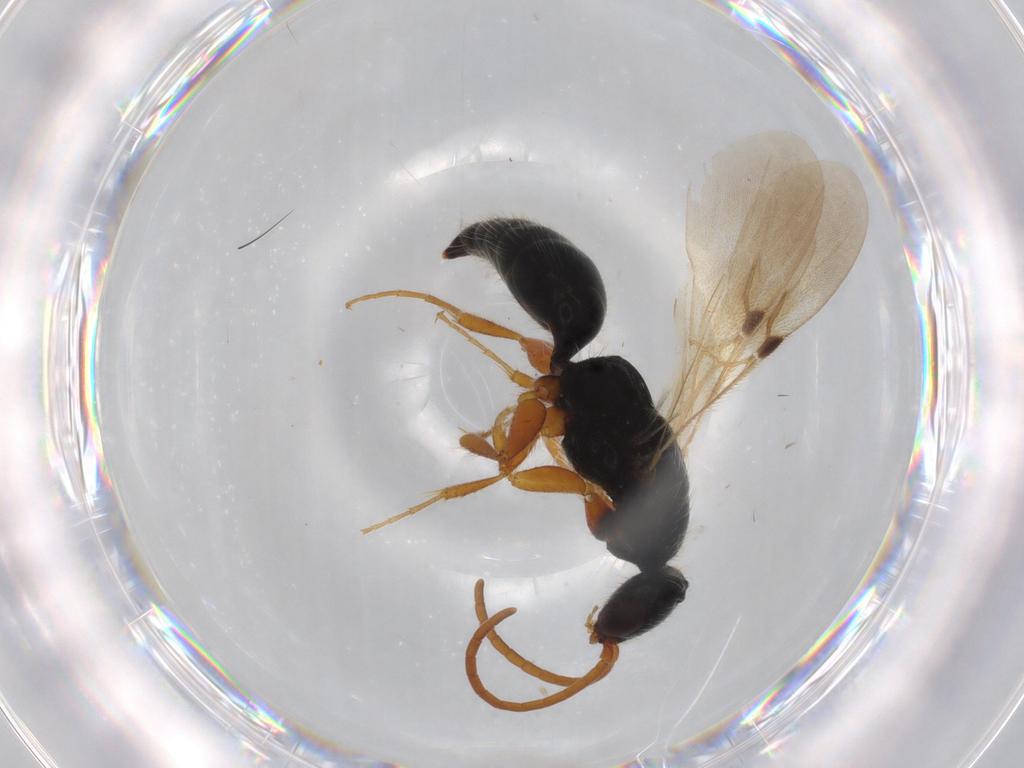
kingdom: Animalia
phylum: Arthropoda
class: Insecta
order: Hymenoptera
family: Bethylidae
